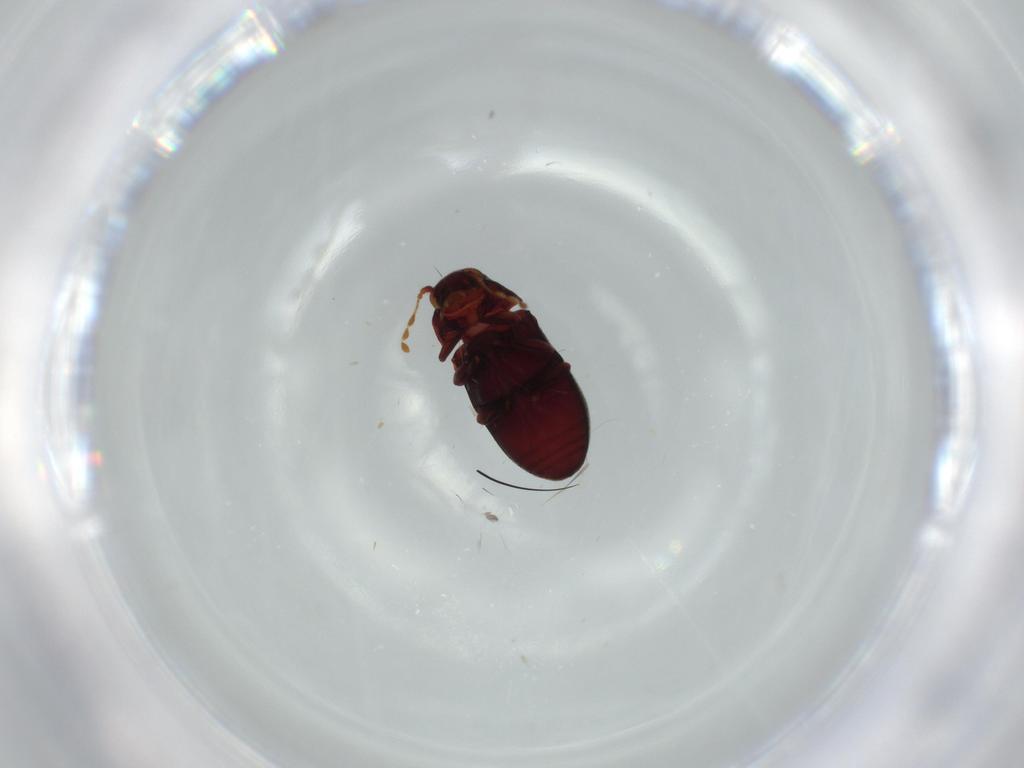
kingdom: Animalia
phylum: Arthropoda
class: Insecta
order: Coleoptera
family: Ptinidae
